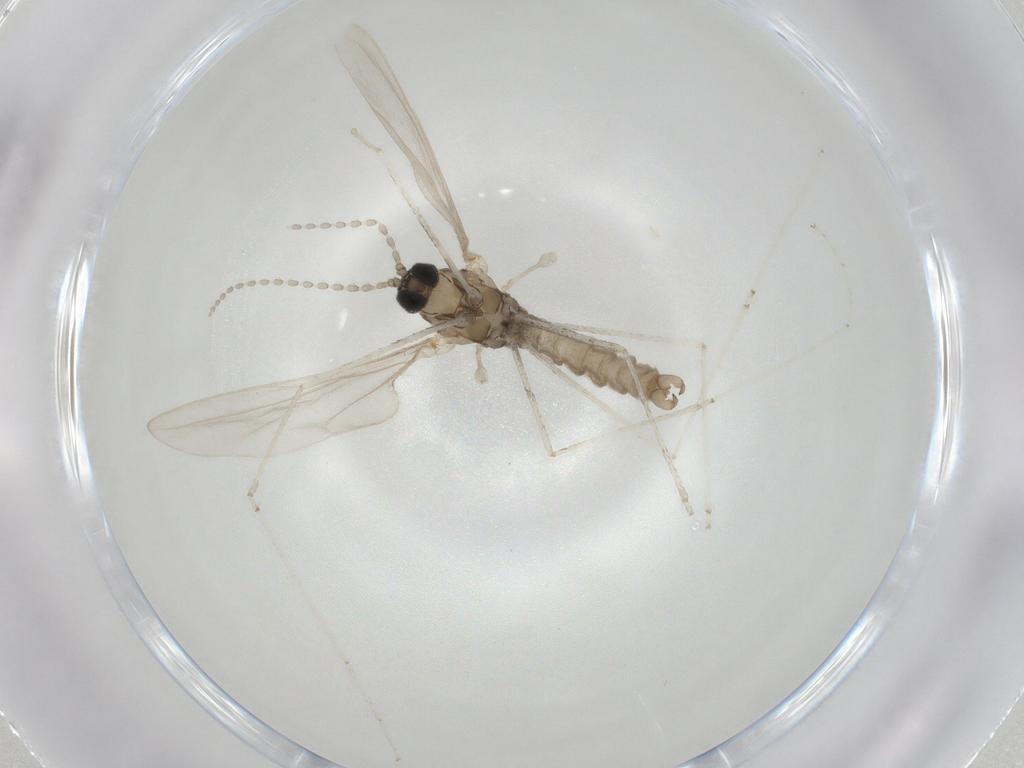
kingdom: Animalia
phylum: Arthropoda
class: Insecta
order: Diptera
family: Cecidomyiidae
